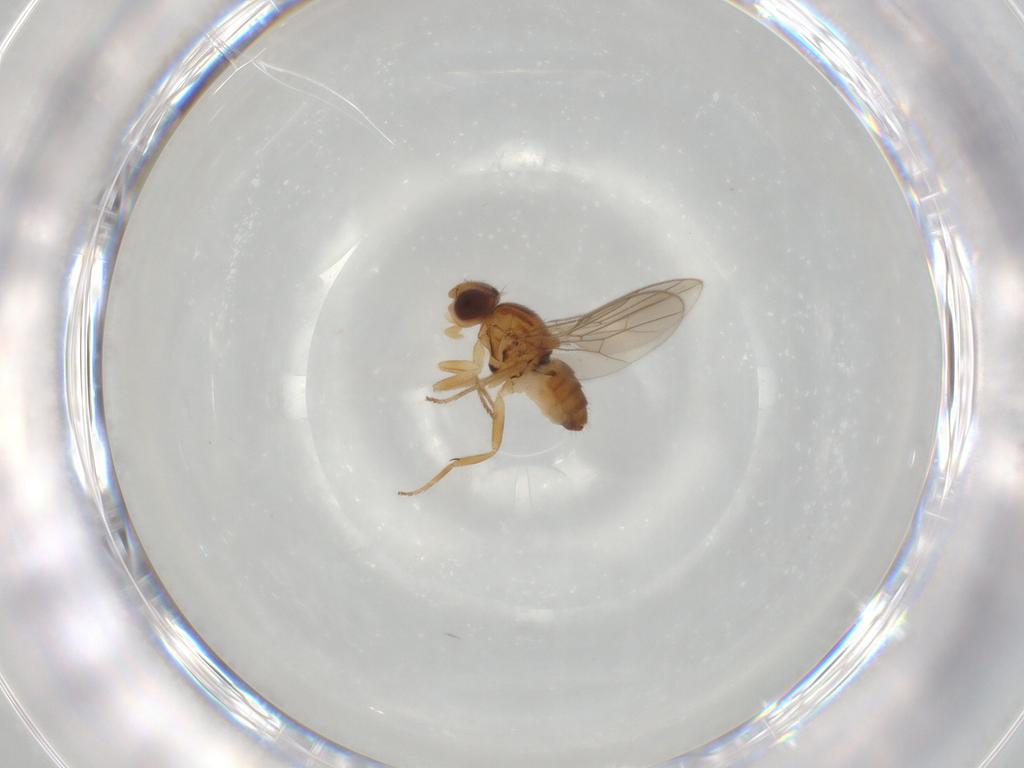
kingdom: Animalia
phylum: Arthropoda
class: Insecta
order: Diptera
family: Chloropidae
